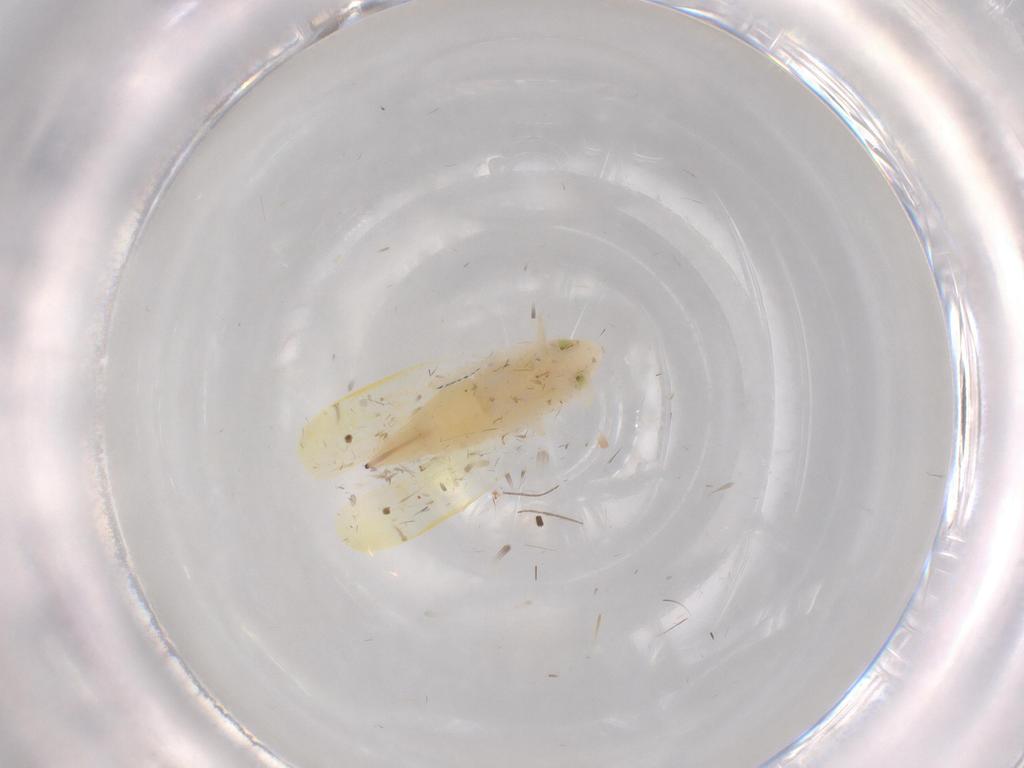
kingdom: Animalia
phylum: Arthropoda
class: Insecta
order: Hemiptera
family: Cicadellidae
